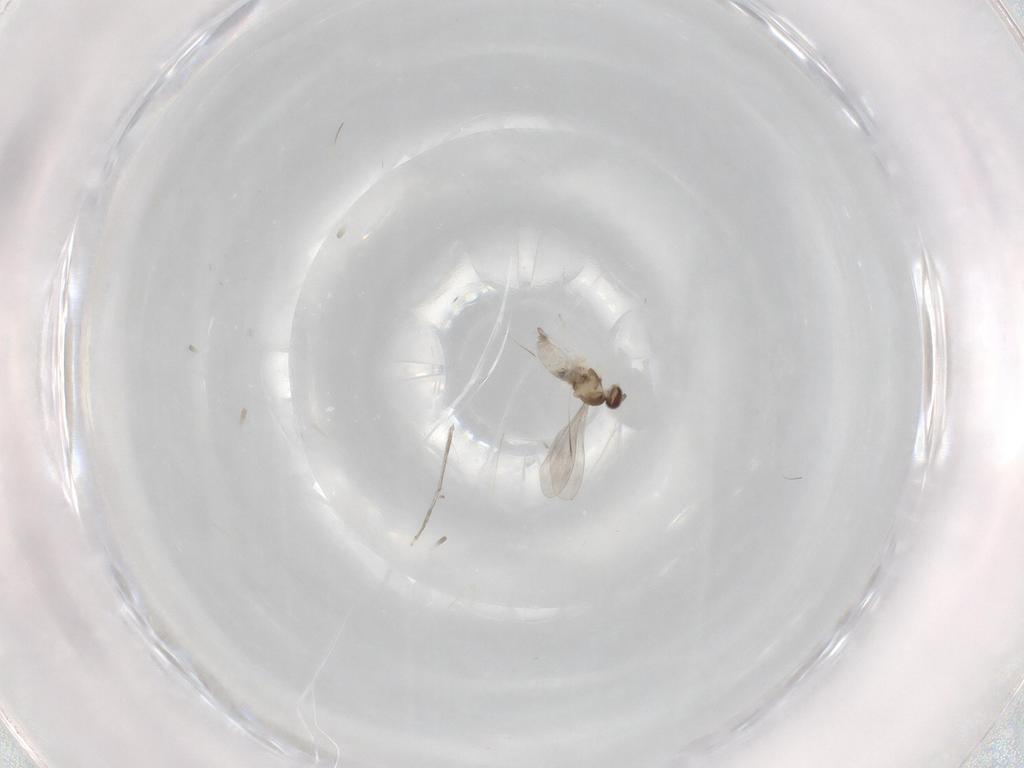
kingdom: Animalia
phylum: Arthropoda
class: Insecta
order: Diptera
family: Cecidomyiidae
